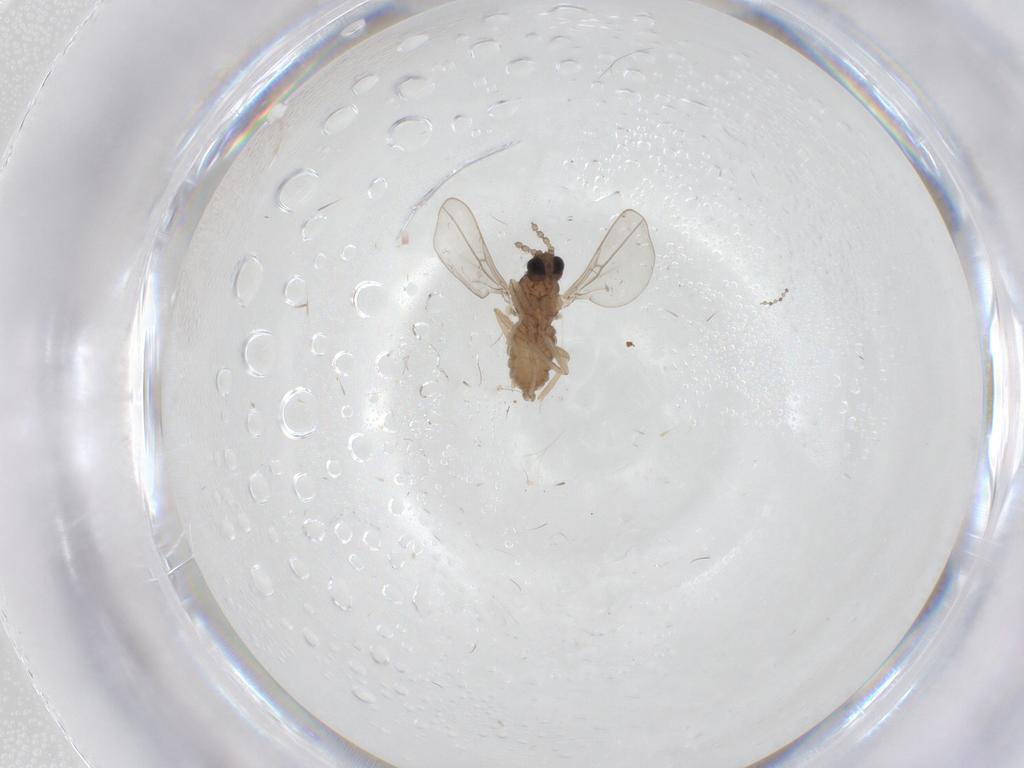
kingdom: Animalia
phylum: Arthropoda
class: Insecta
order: Diptera
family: Cecidomyiidae
